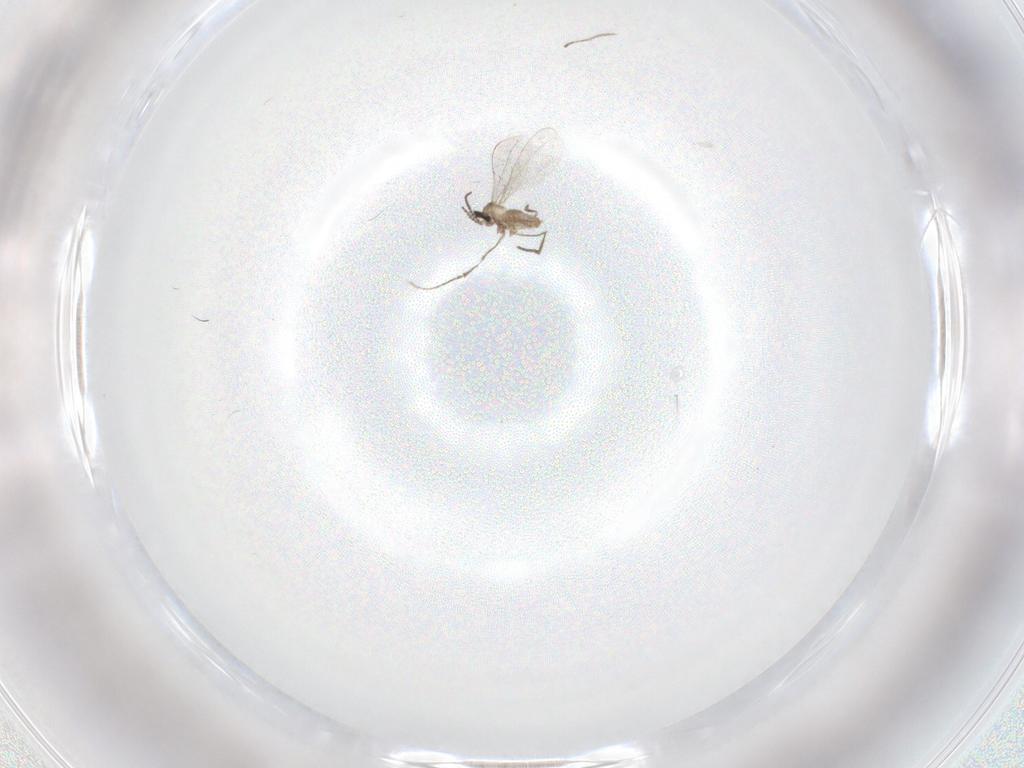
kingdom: Animalia
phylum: Arthropoda
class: Insecta
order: Diptera
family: Cecidomyiidae
